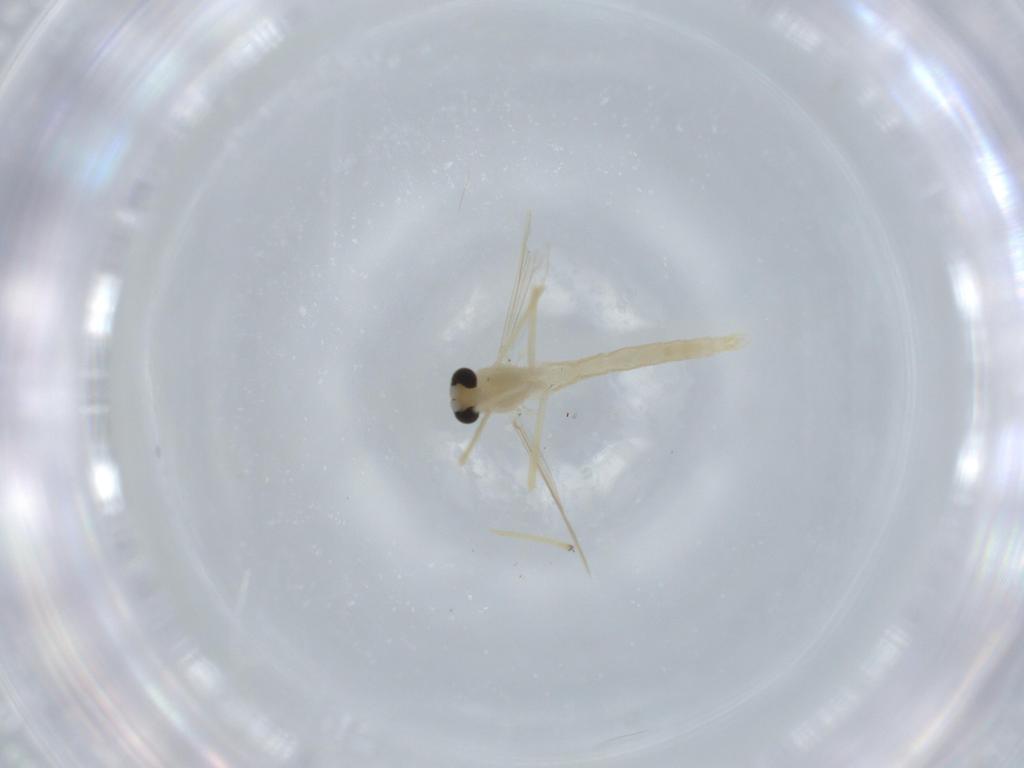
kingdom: Animalia
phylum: Arthropoda
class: Insecta
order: Diptera
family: Chironomidae
